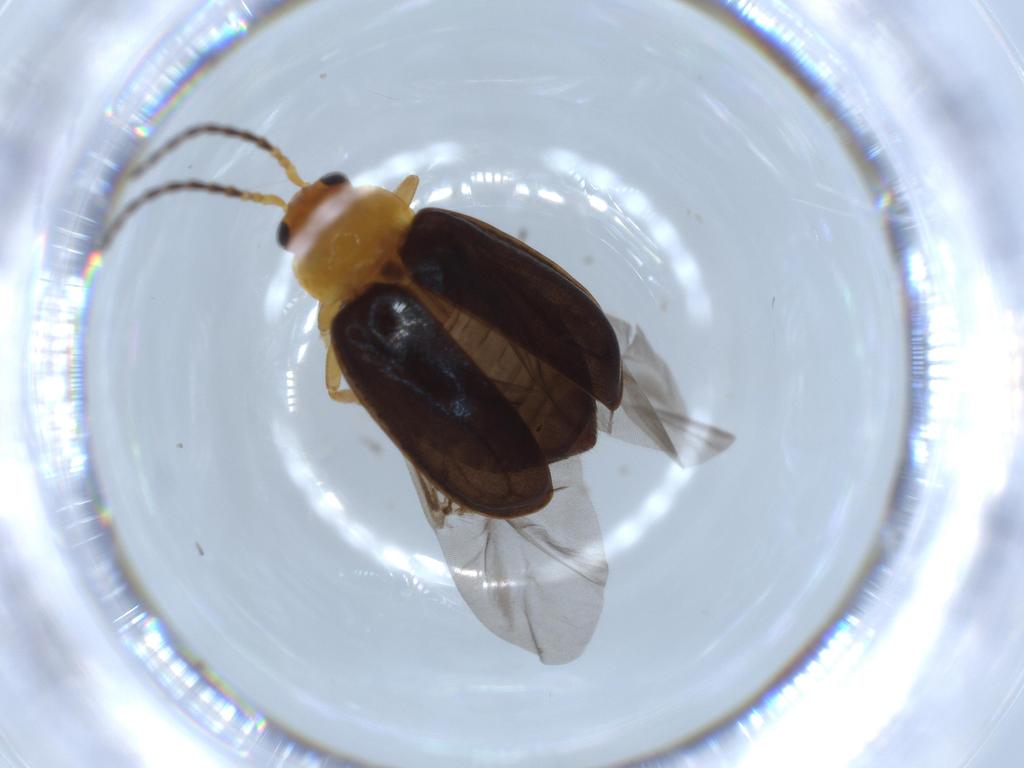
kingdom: Animalia
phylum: Arthropoda
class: Insecta
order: Coleoptera
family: Chrysomelidae
